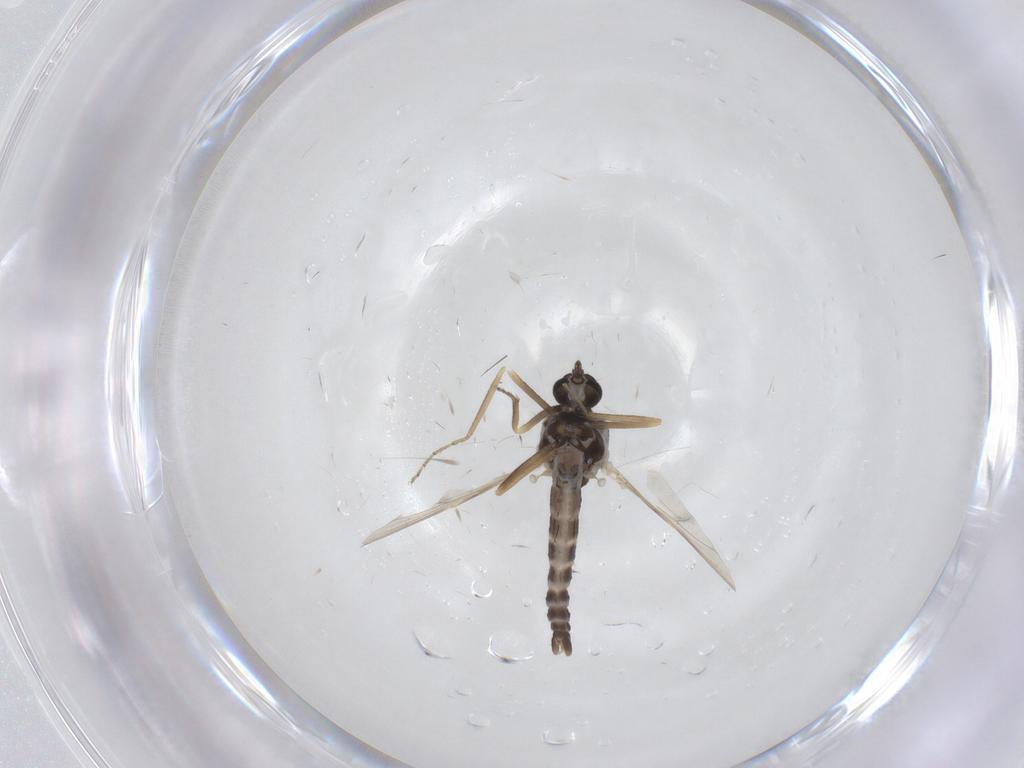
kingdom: Animalia
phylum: Arthropoda
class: Insecta
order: Diptera
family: Ceratopogonidae
